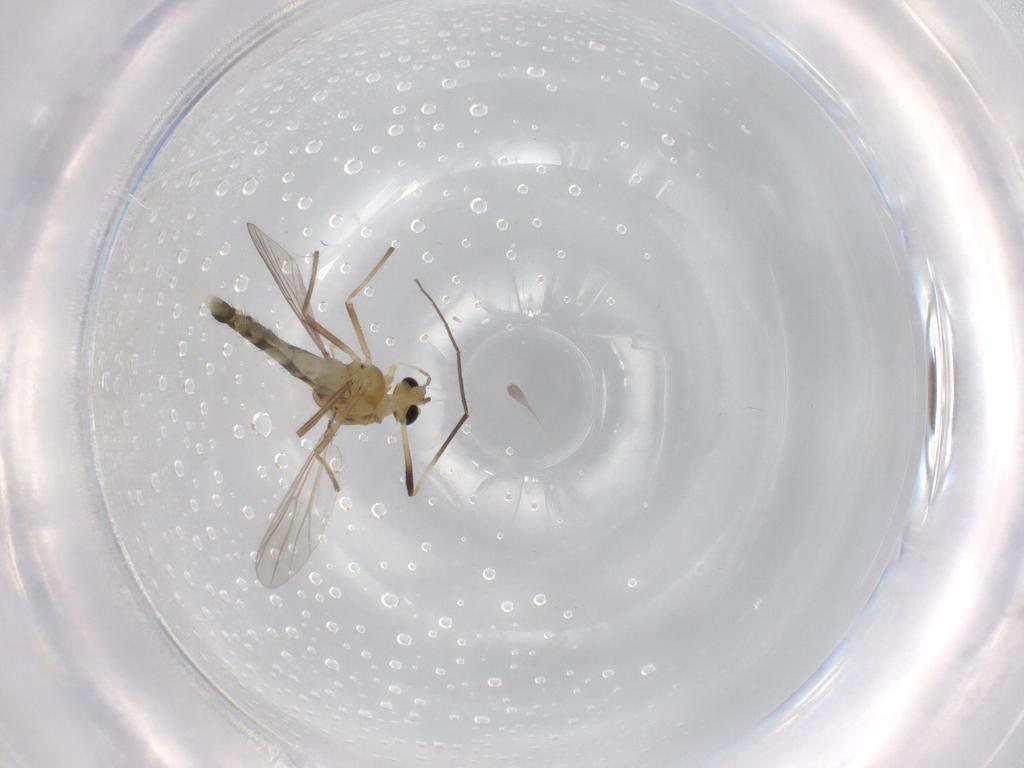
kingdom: Animalia
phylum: Arthropoda
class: Insecta
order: Diptera
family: Chironomidae
